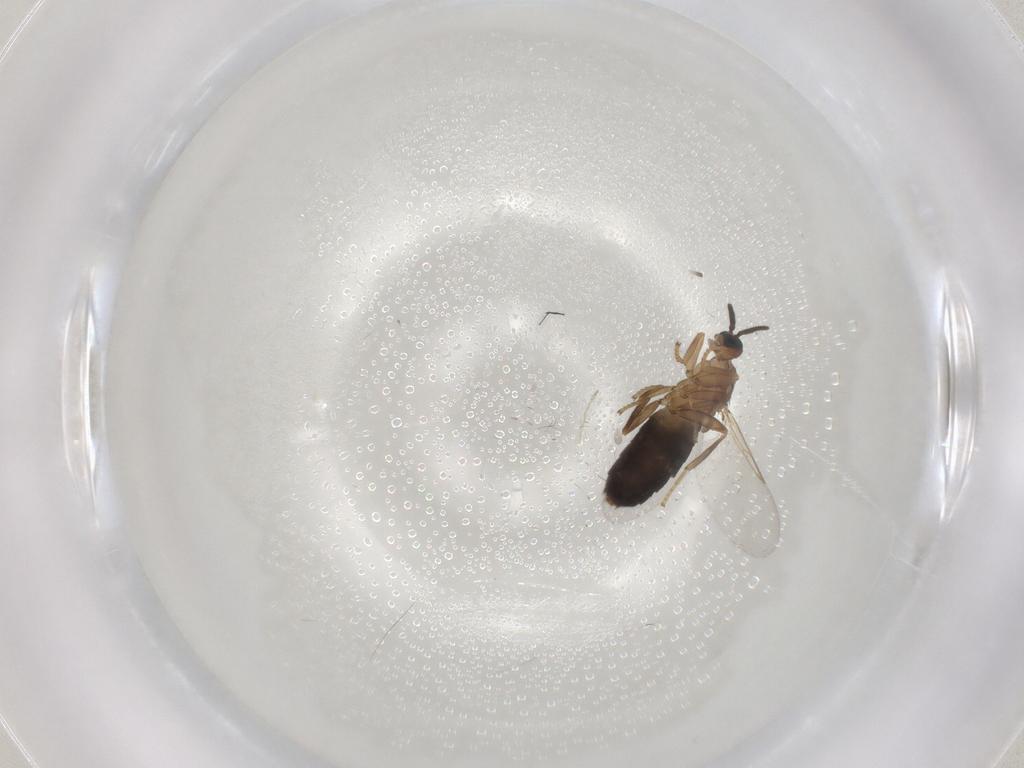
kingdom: Animalia
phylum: Arthropoda
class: Insecta
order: Diptera
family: Scatopsidae
